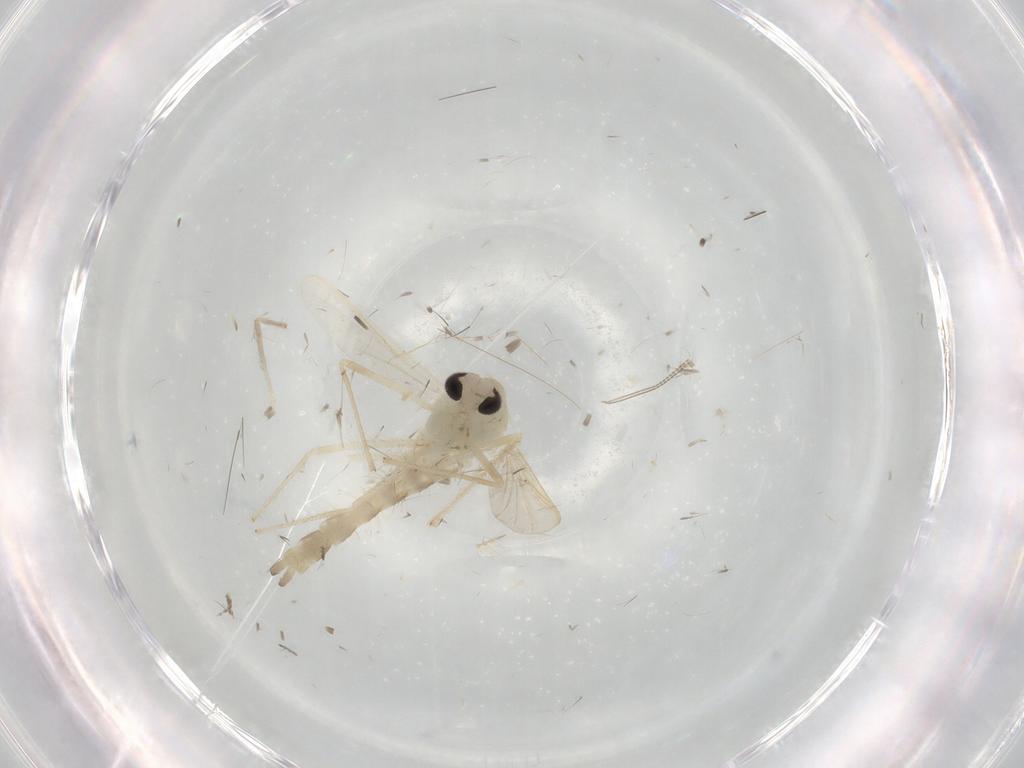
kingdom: Animalia
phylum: Arthropoda
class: Insecta
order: Diptera
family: Chironomidae
